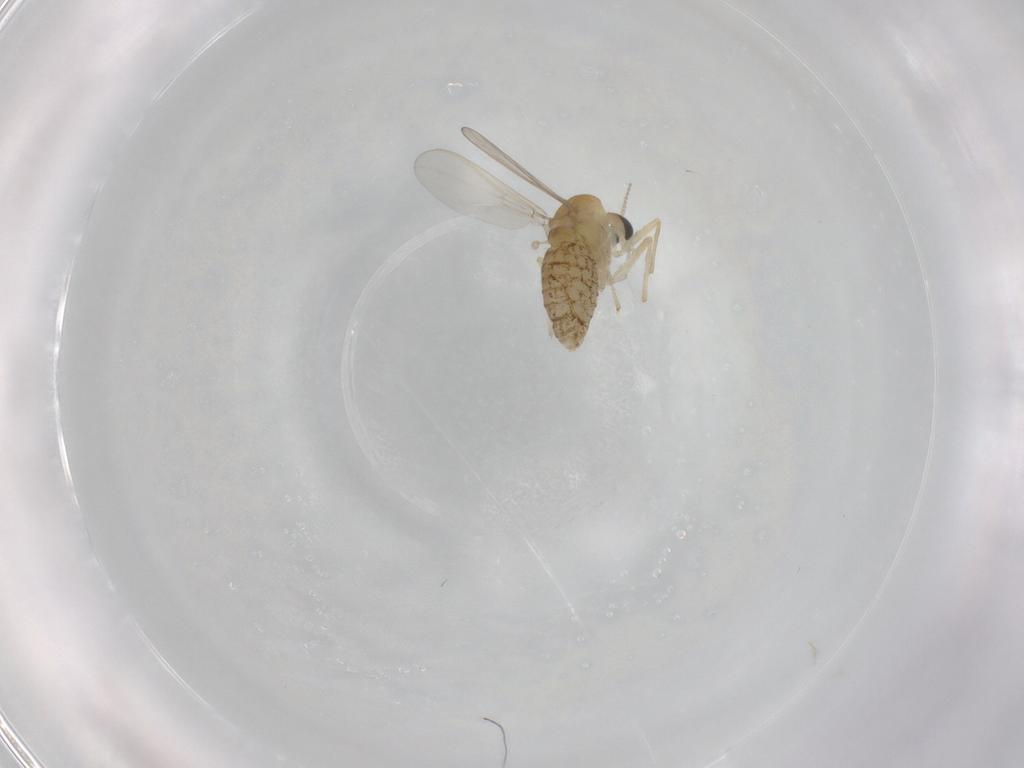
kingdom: Animalia
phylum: Arthropoda
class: Insecta
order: Diptera
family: Chironomidae
